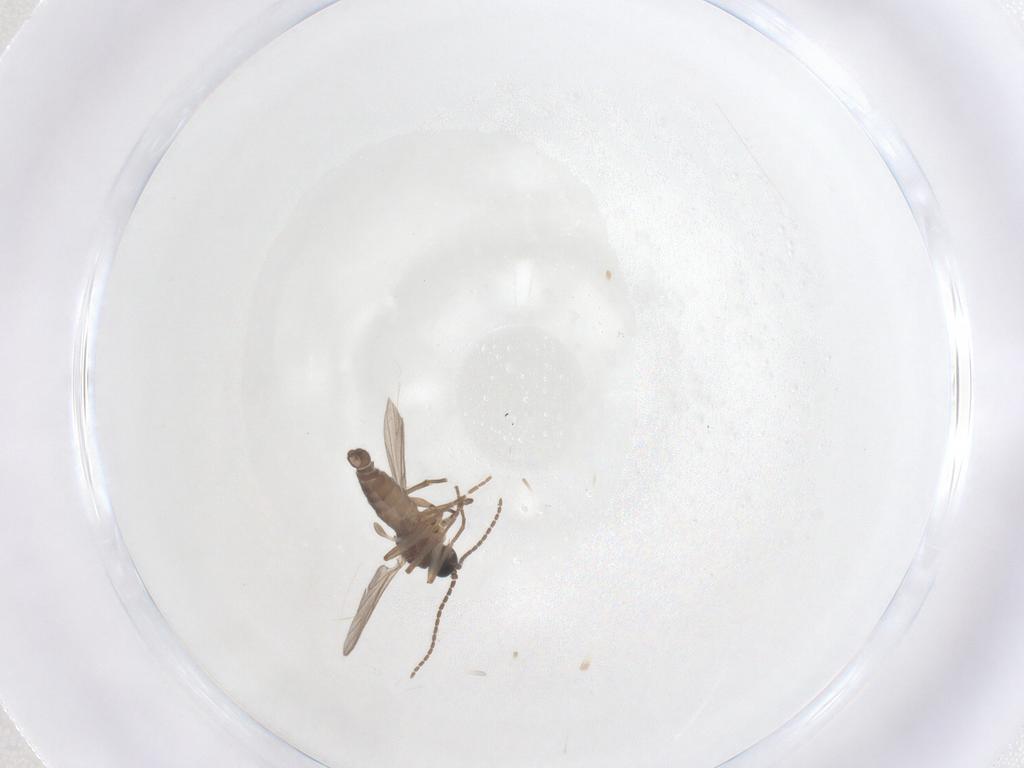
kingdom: Animalia
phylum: Arthropoda
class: Insecta
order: Diptera
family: Sciaridae
